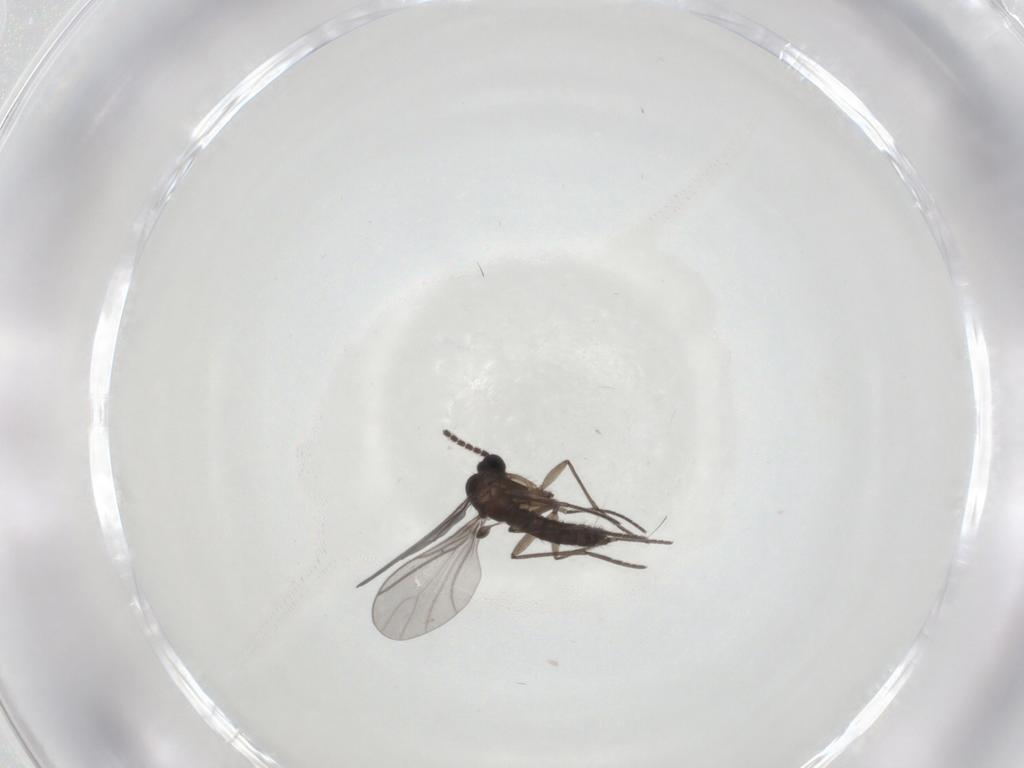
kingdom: Animalia
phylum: Arthropoda
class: Insecta
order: Diptera
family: Sciaridae
